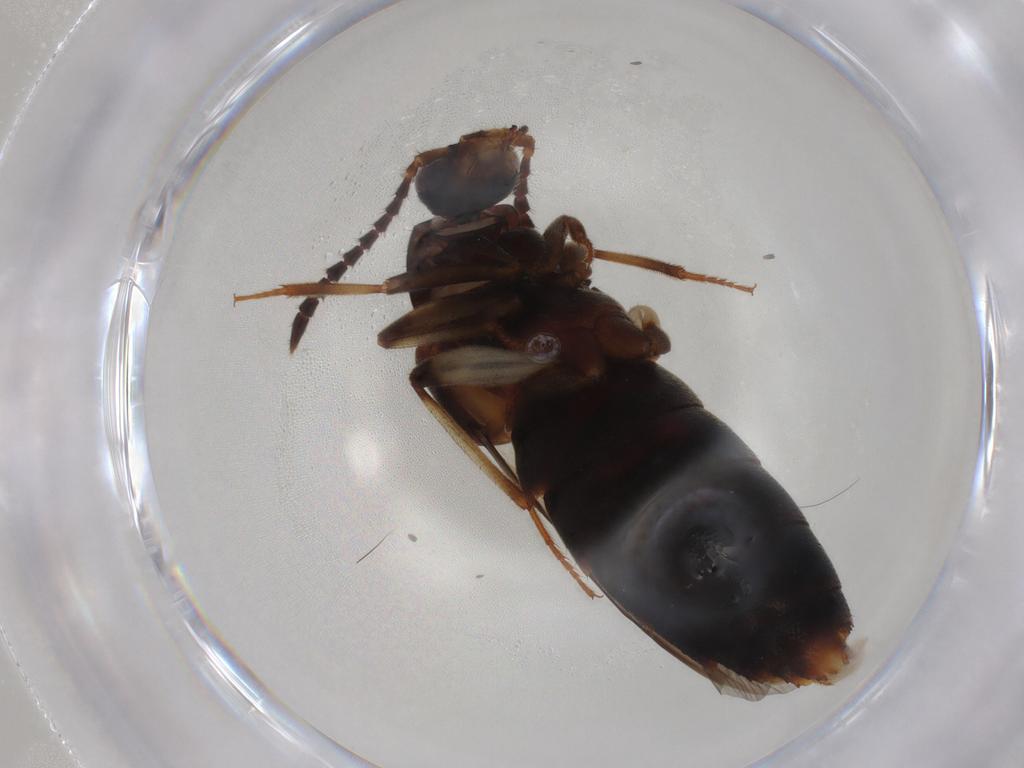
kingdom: Animalia
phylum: Arthropoda
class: Insecta
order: Coleoptera
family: Staphylinidae
